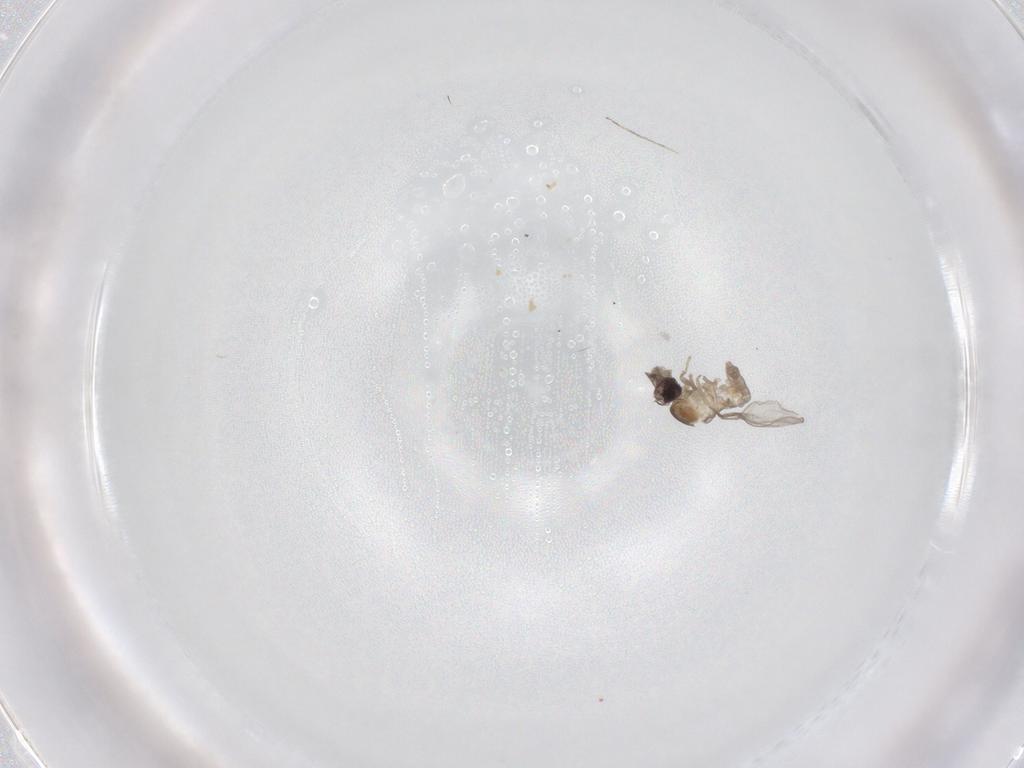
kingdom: Animalia
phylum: Arthropoda
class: Insecta
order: Diptera
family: Cecidomyiidae
